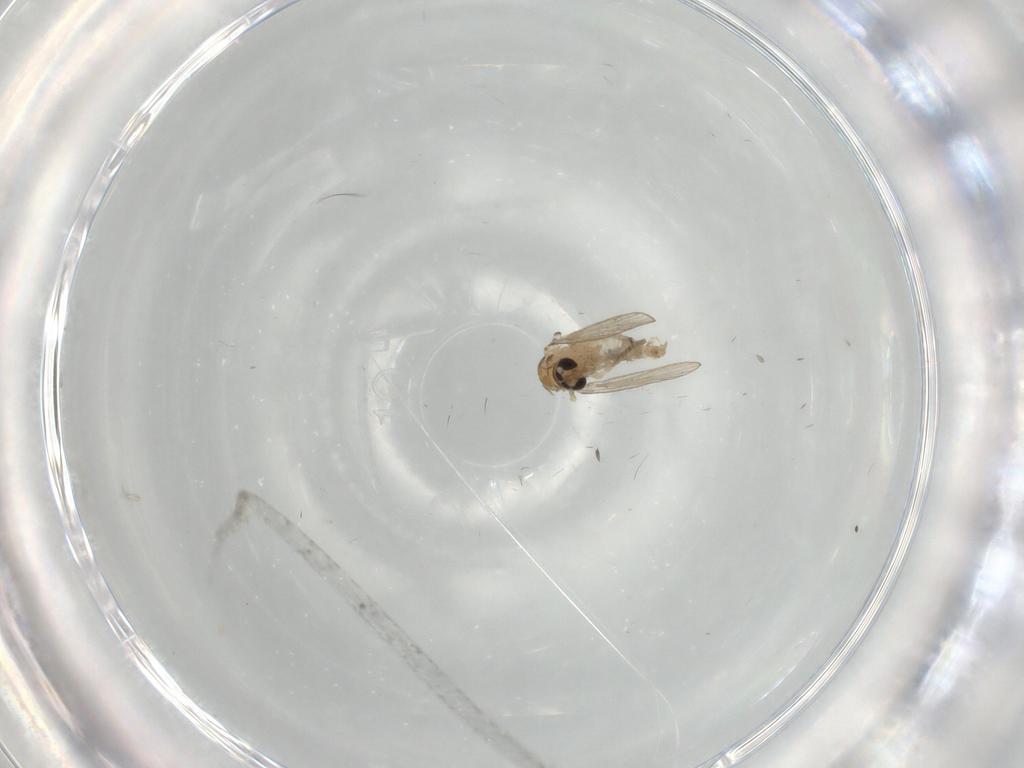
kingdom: Animalia
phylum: Arthropoda
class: Insecta
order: Diptera
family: Psychodidae
